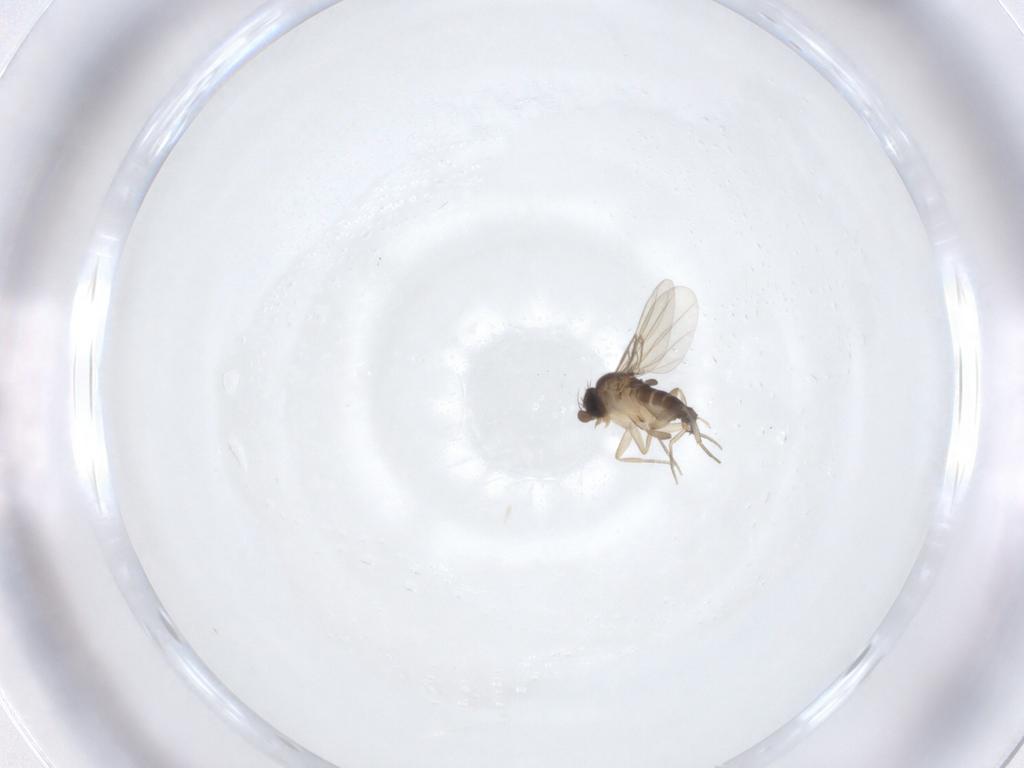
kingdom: Animalia
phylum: Arthropoda
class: Insecta
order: Diptera
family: Phoridae
